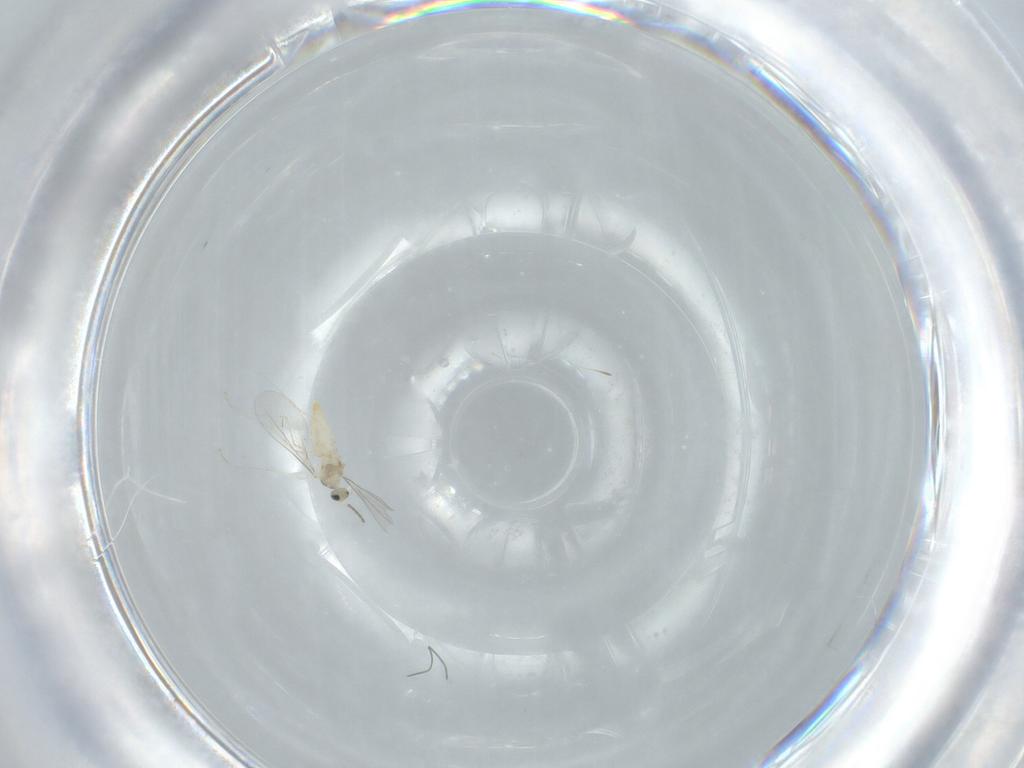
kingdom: Animalia
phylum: Arthropoda
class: Insecta
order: Diptera
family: Cecidomyiidae
